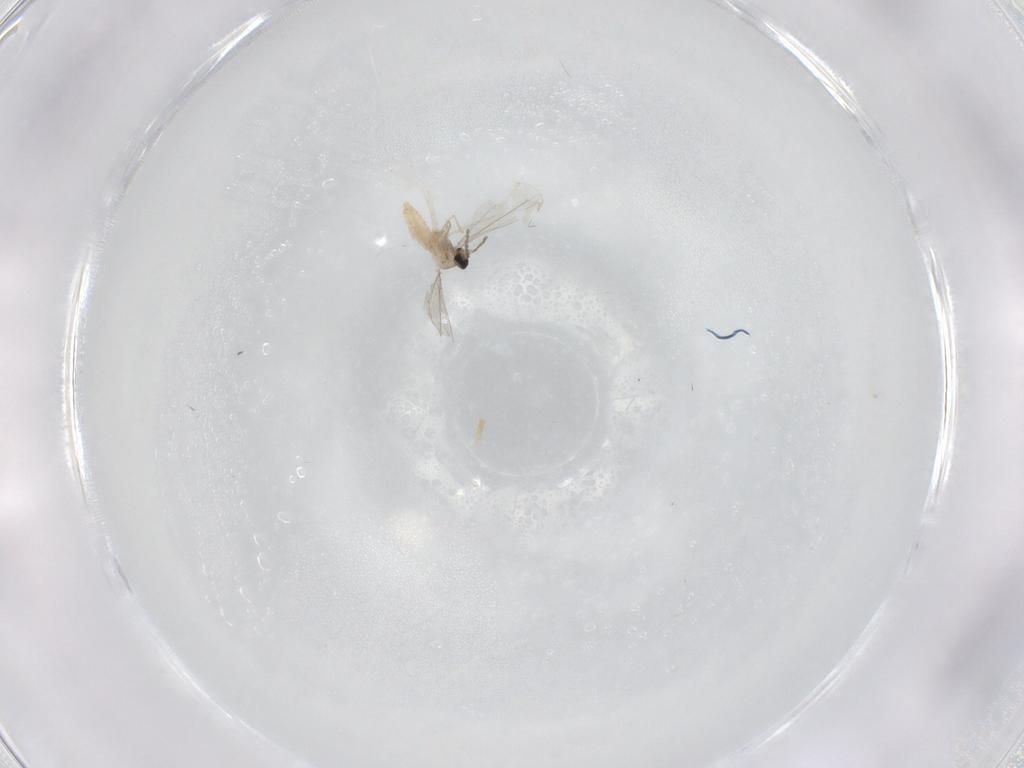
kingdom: Animalia
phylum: Arthropoda
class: Insecta
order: Diptera
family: Cecidomyiidae
